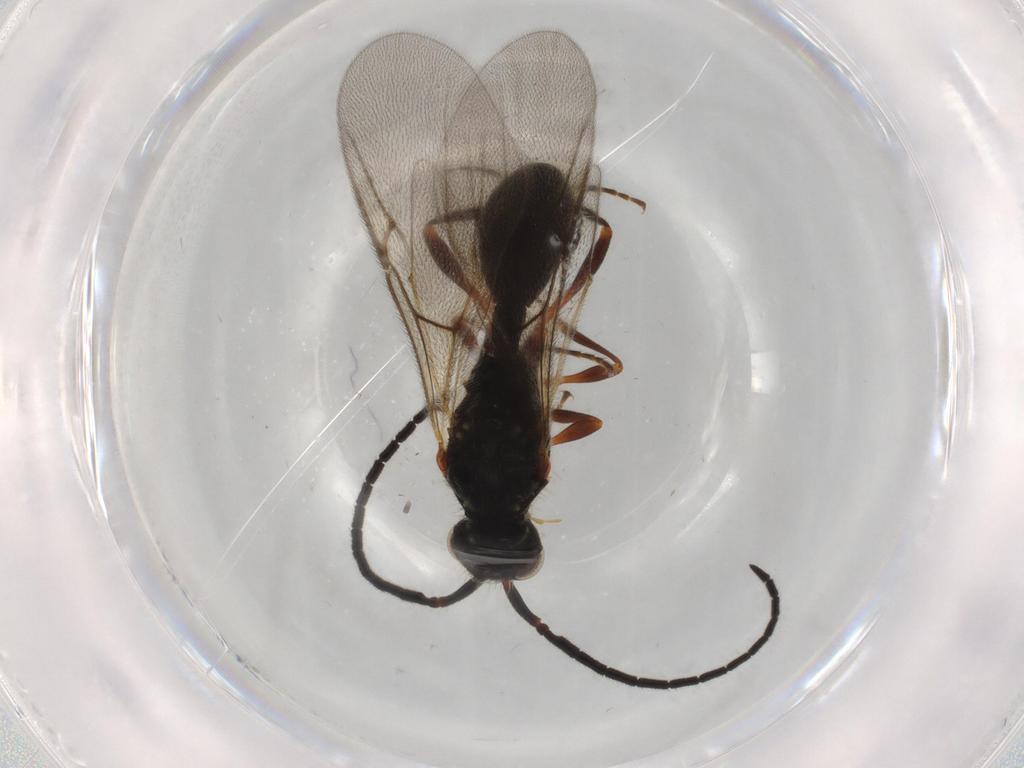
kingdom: Animalia
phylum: Arthropoda
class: Insecta
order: Hymenoptera
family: Diapriidae
